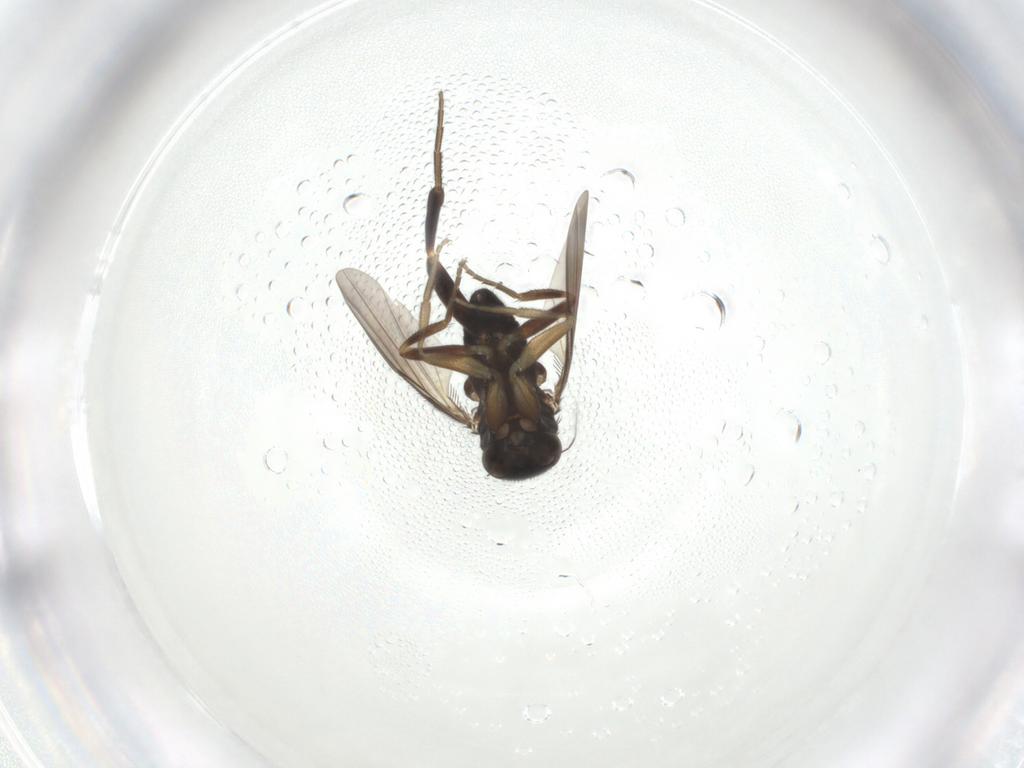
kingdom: Animalia
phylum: Arthropoda
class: Insecta
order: Diptera
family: Phoridae
